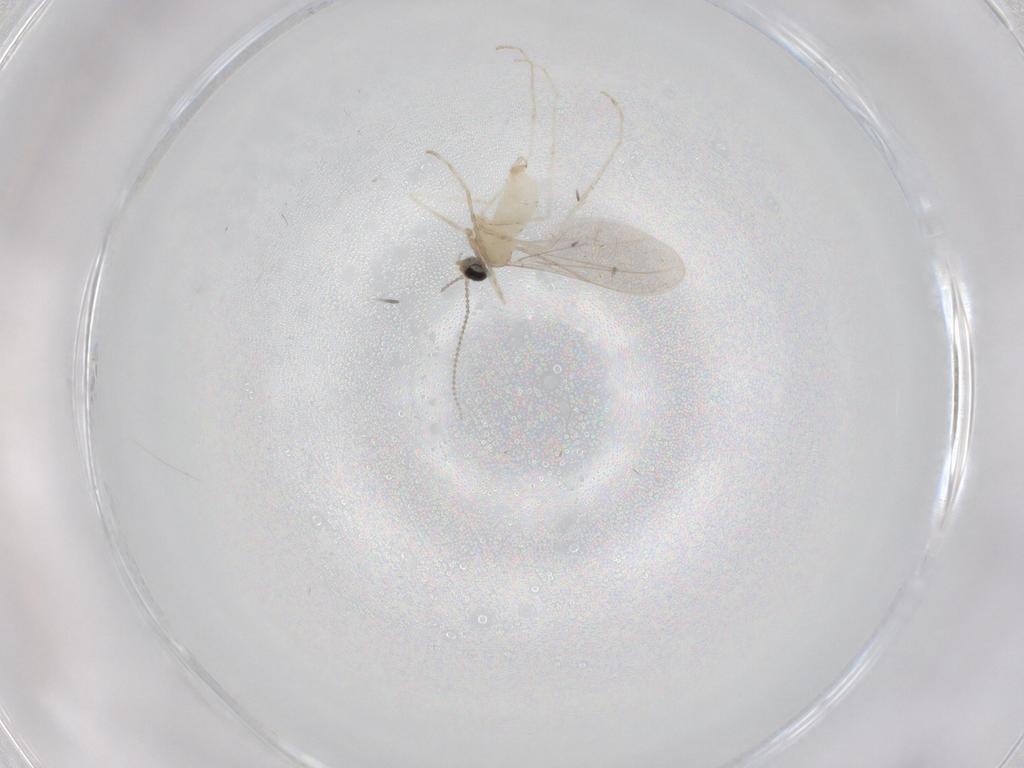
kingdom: Animalia
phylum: Arthropoda
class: Insecta
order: Diptera
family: Cecidomyiidae
